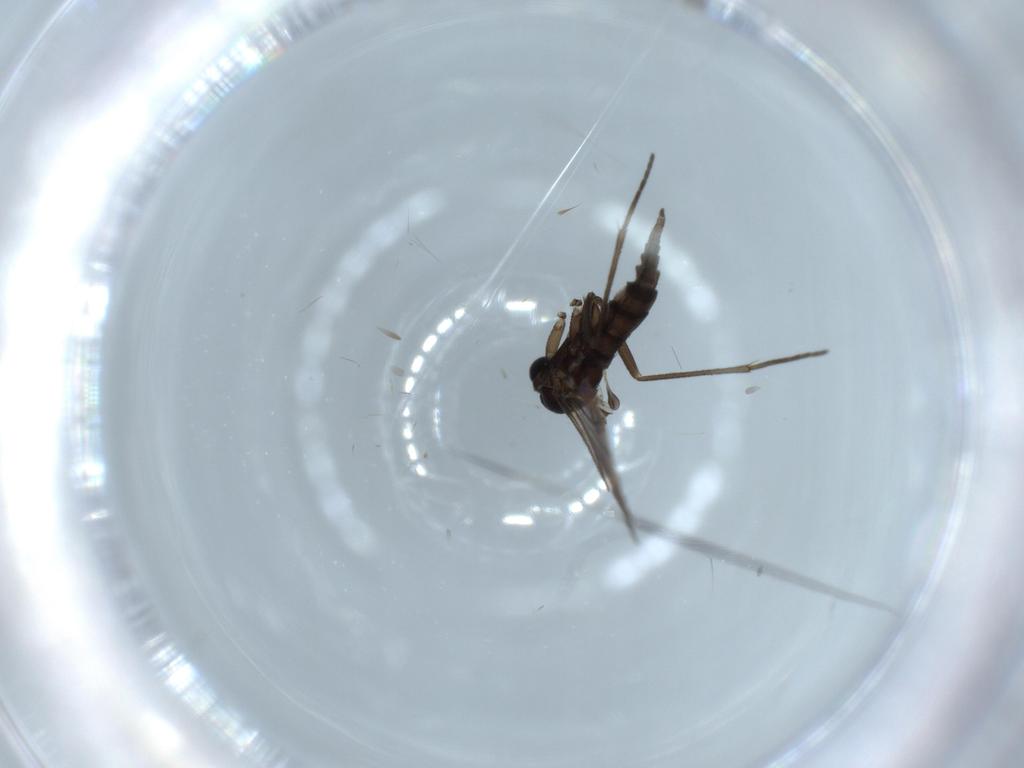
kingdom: Animalia
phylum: Arthropoda
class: Insecta
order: Diptera
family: Sciaridae
